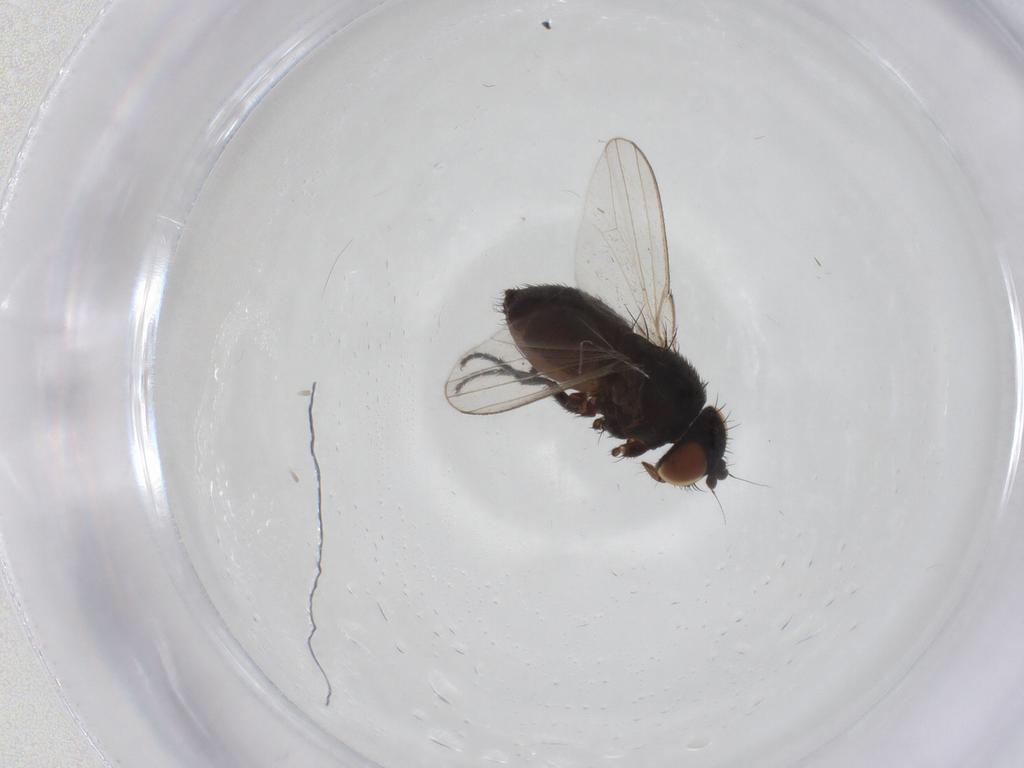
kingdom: Animalia
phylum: Arthropoda
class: Insecta
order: Diptera
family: Milichiidae
